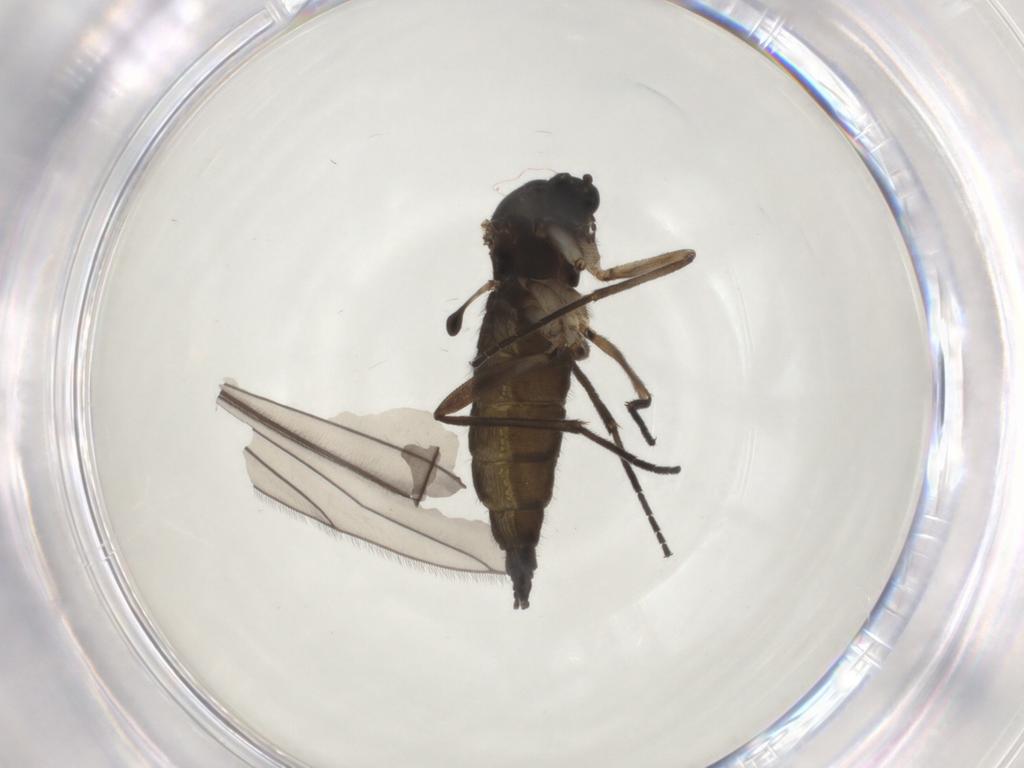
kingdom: Animalia
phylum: Arthropoda
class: Insecta
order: Diptera
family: Sciaridae
